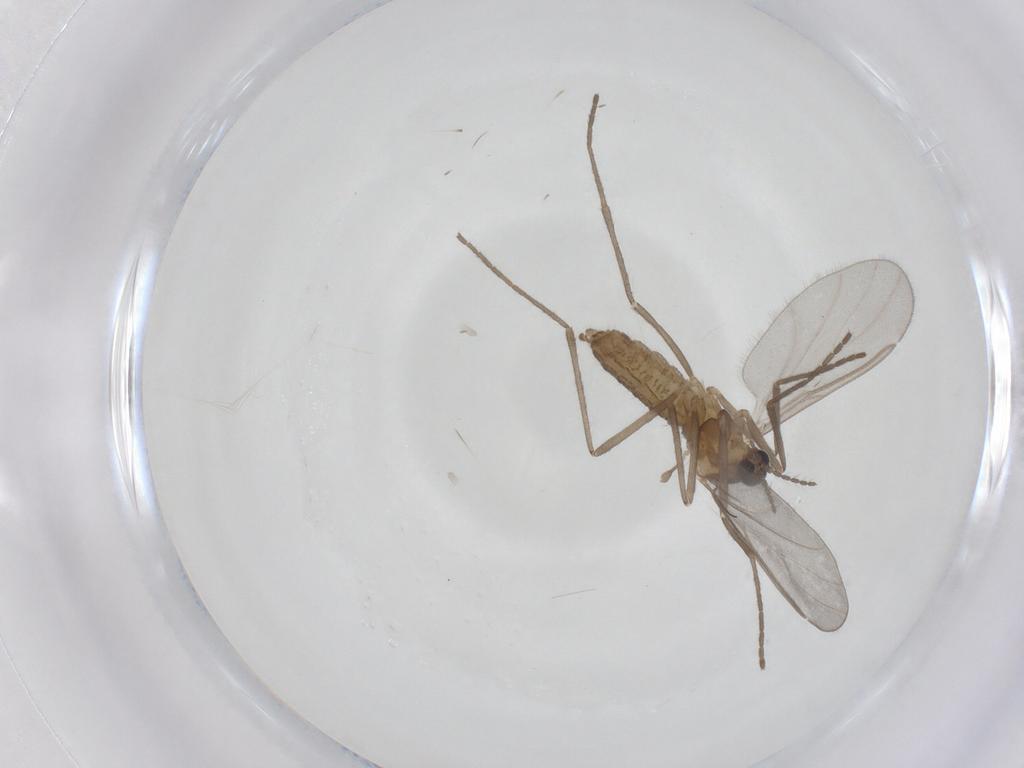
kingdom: Animalia
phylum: Arthropoda
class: Insecta
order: Diptera
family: Cecidomyiidae
